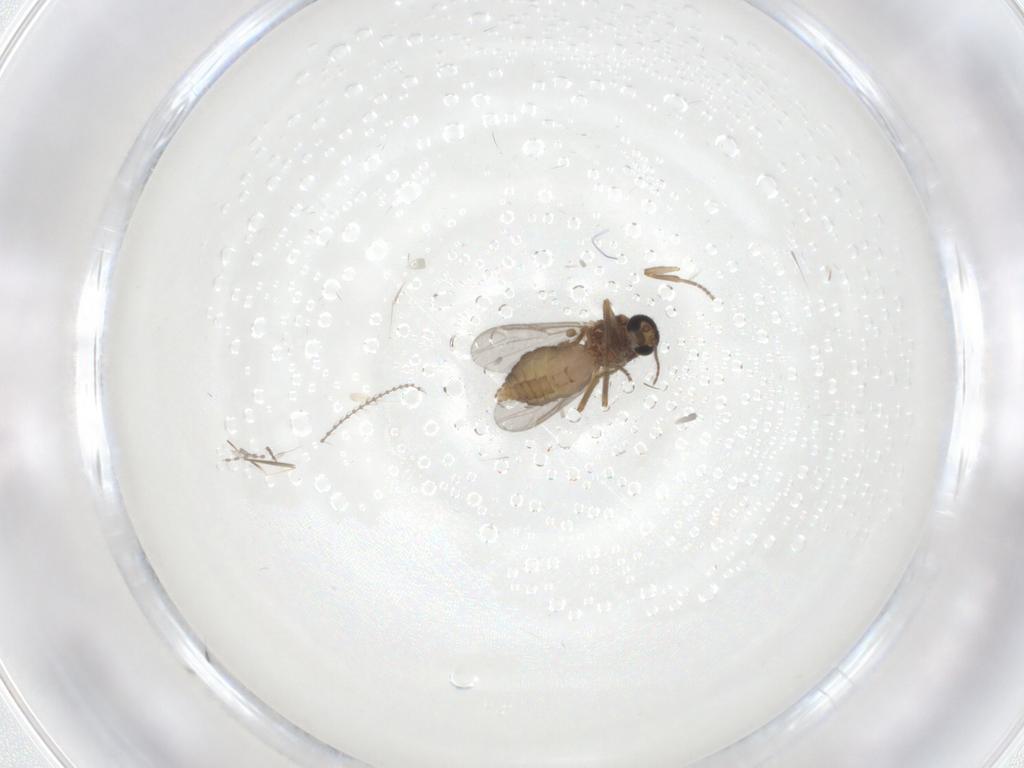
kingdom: Animalia
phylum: Arthropoda
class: Insecta
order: Diptera
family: Ceratopogonidae
